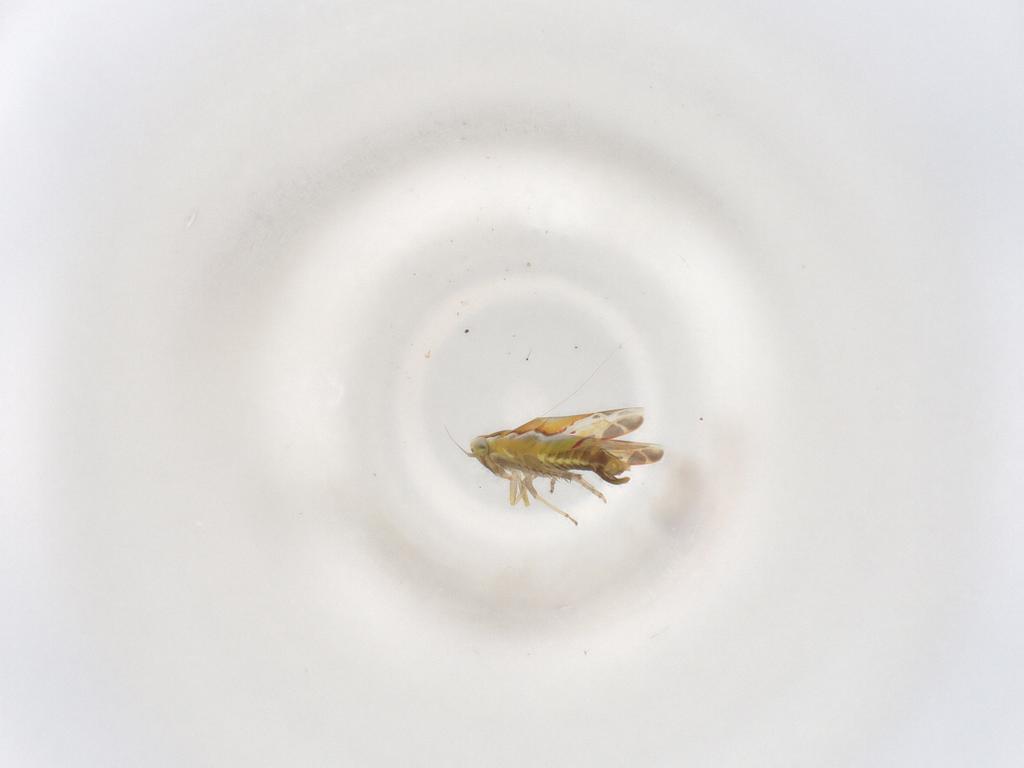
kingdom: Animalia
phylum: Arthropoda
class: Insecta
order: Hemiptera
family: Cicadellidae
